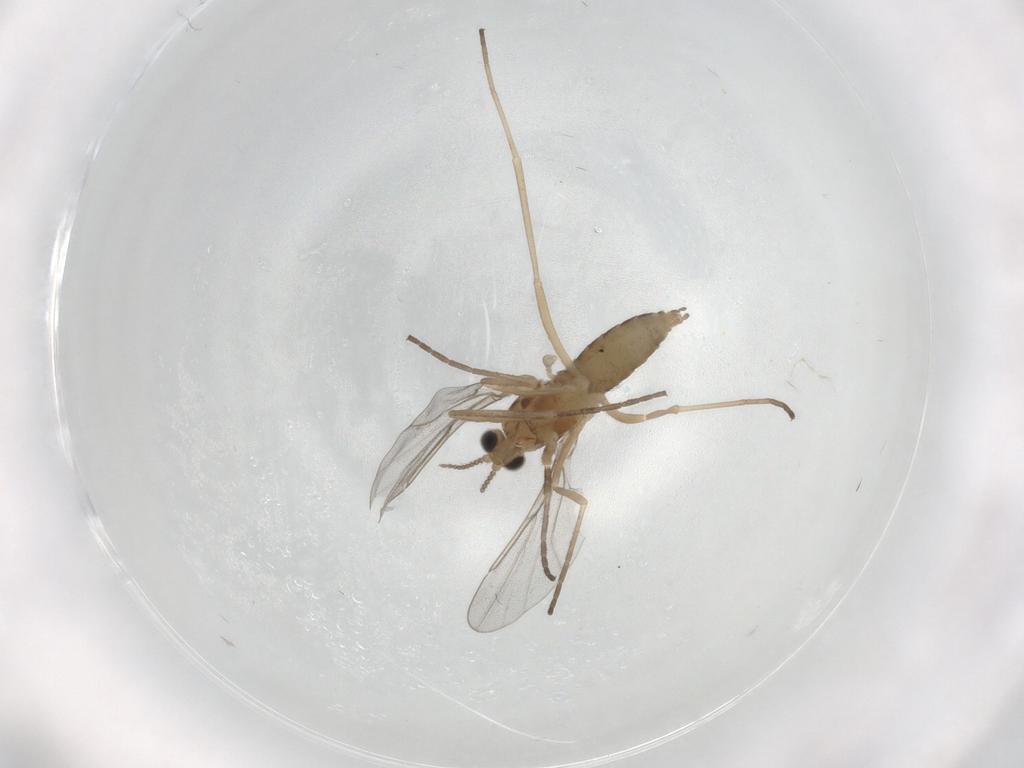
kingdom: Animalia
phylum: Arthropoda
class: Insecta
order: Diptera
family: Cecidomyiidae
